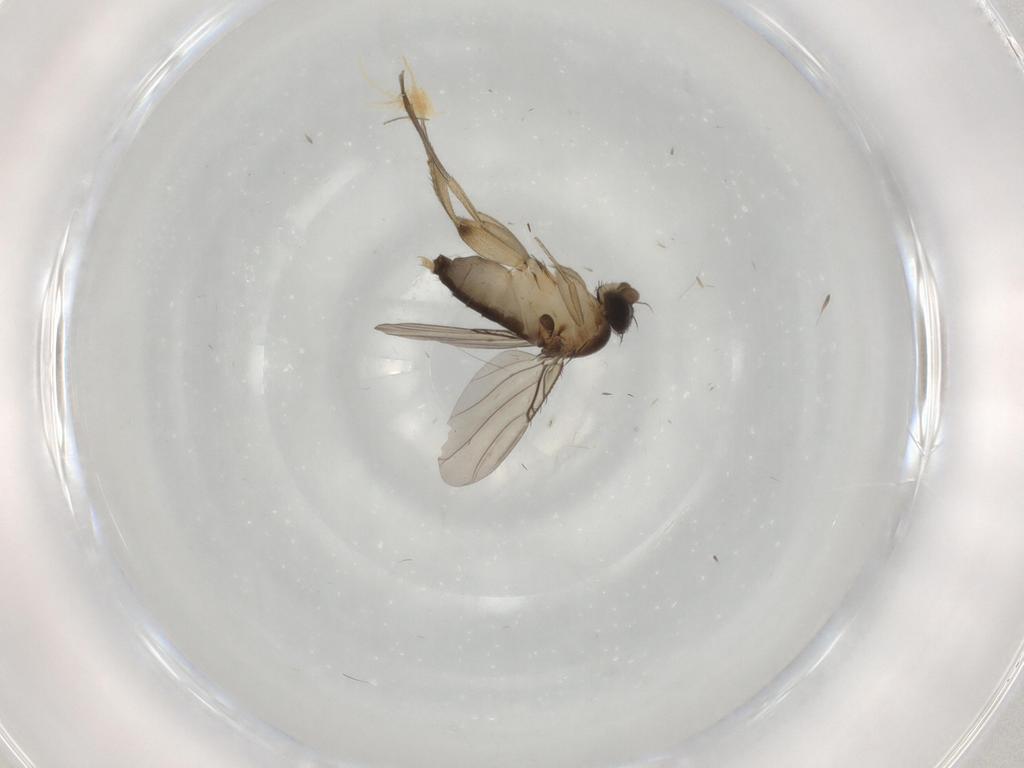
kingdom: Animalia
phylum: Arthropoda
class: Insecta
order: Diptera
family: Phoridae
